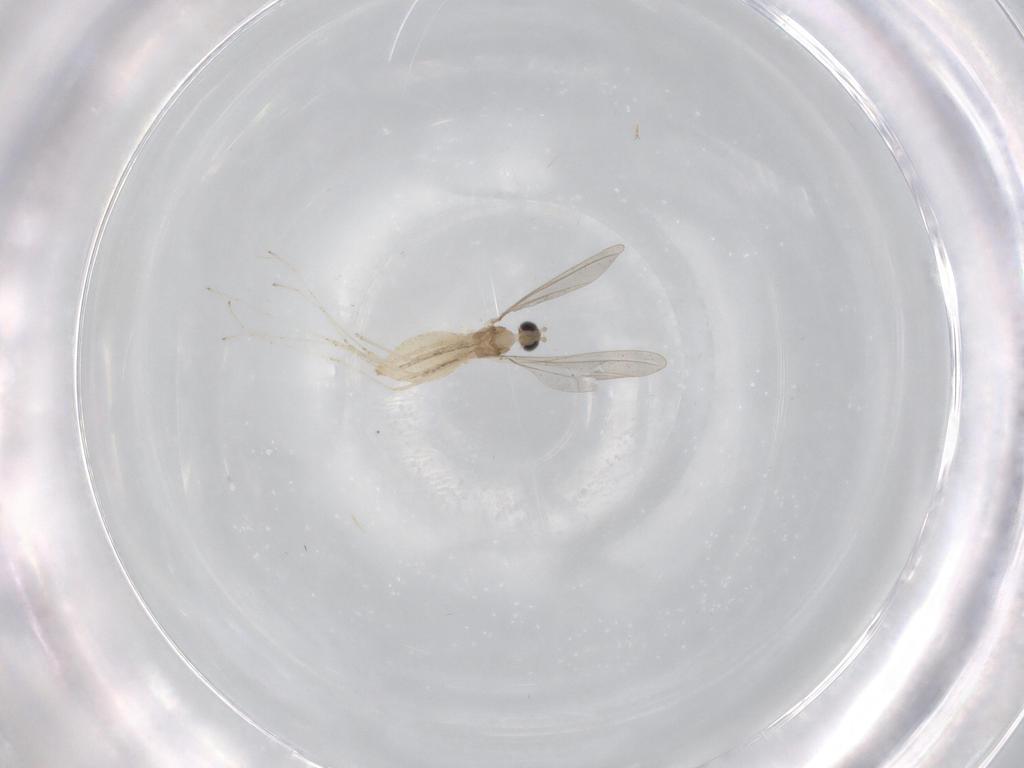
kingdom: Animalia
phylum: Arthropoda
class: Insecta
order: Diptera
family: Cecidomyiidae
